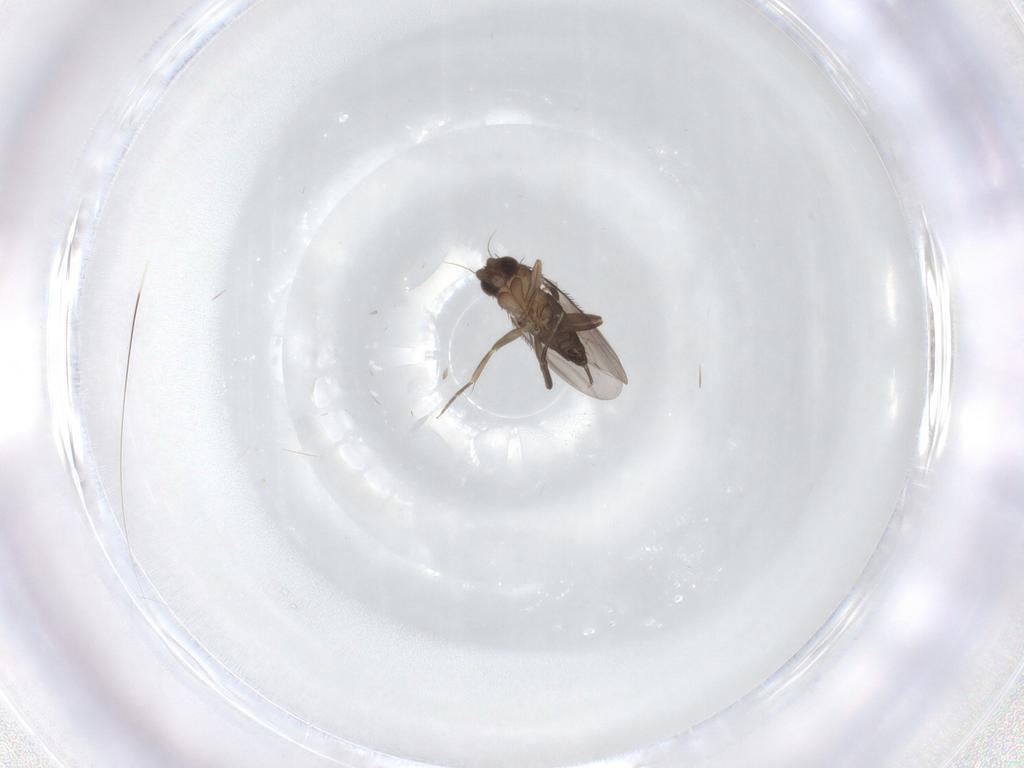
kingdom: Animalia
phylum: Arthropoda
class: Insecta
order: Diptera
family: Phoridae
